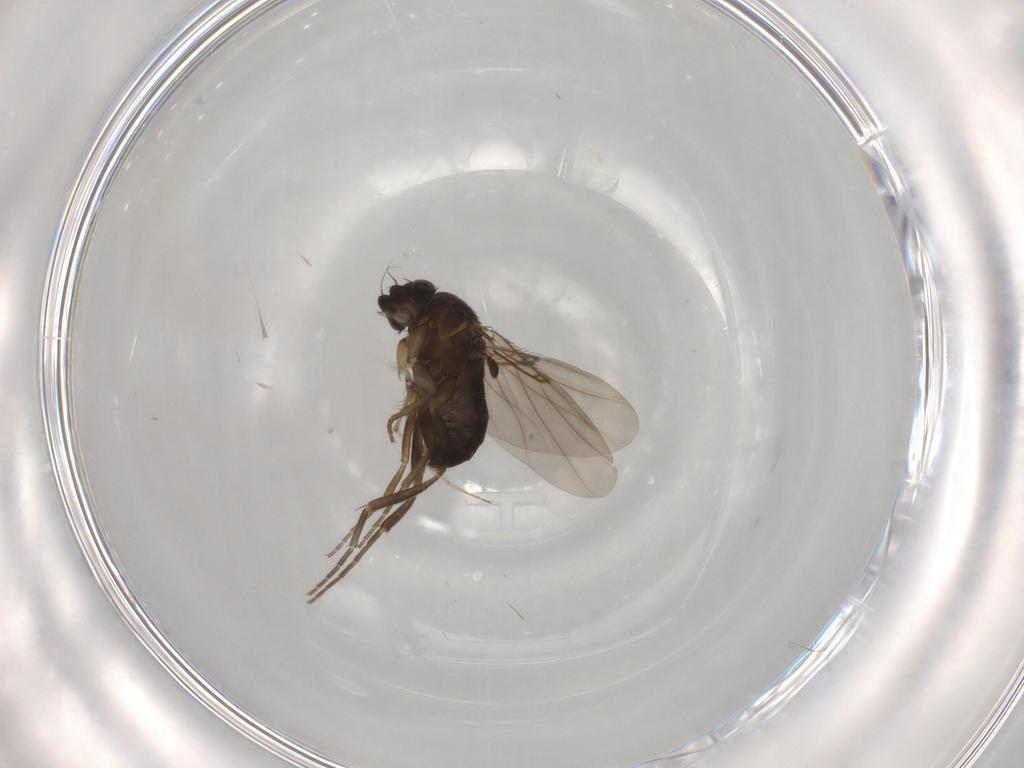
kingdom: Animalia
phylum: Arthropoda
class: Insecta
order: Diptera
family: Phoridae
